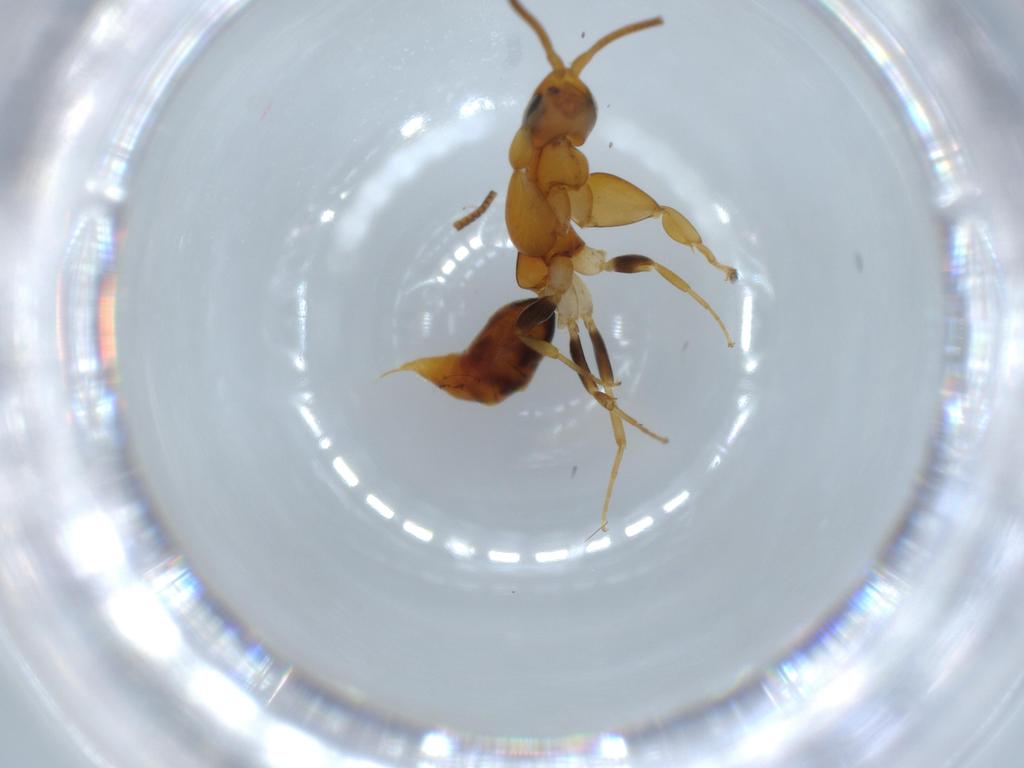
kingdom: Animalia
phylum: Arthropoda
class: Insecta
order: Hymenoptera
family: Sclerogibbidae
